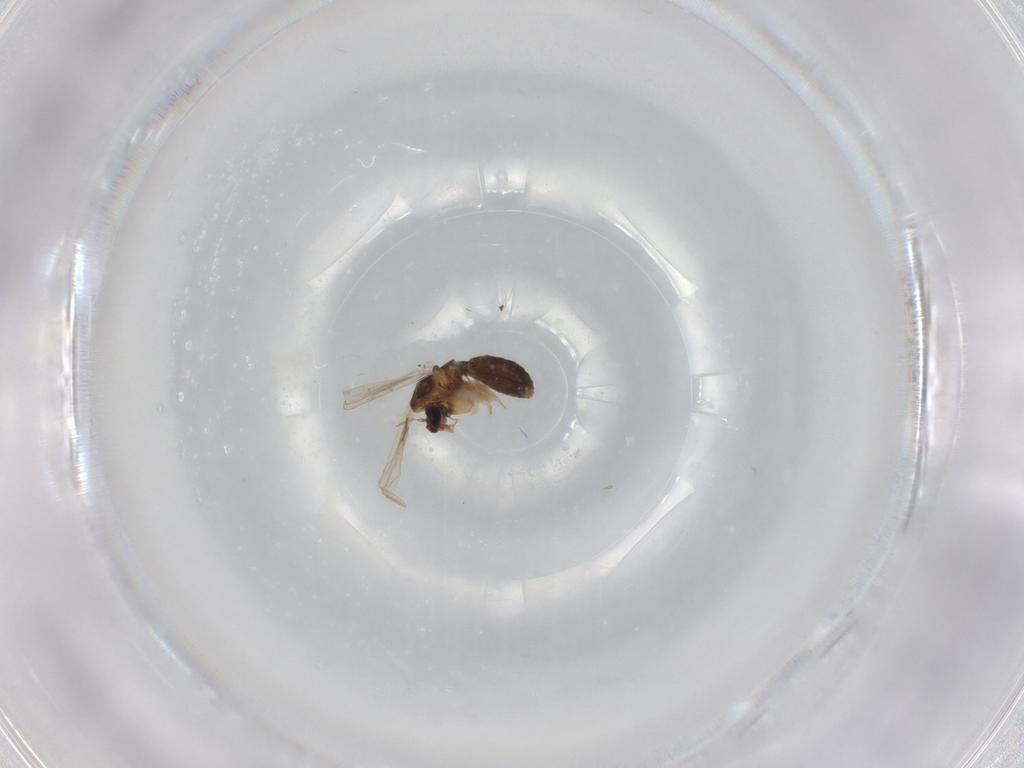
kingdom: Animalia
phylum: Arthropoda
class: Insecta
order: Diptera
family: Chironomidae
